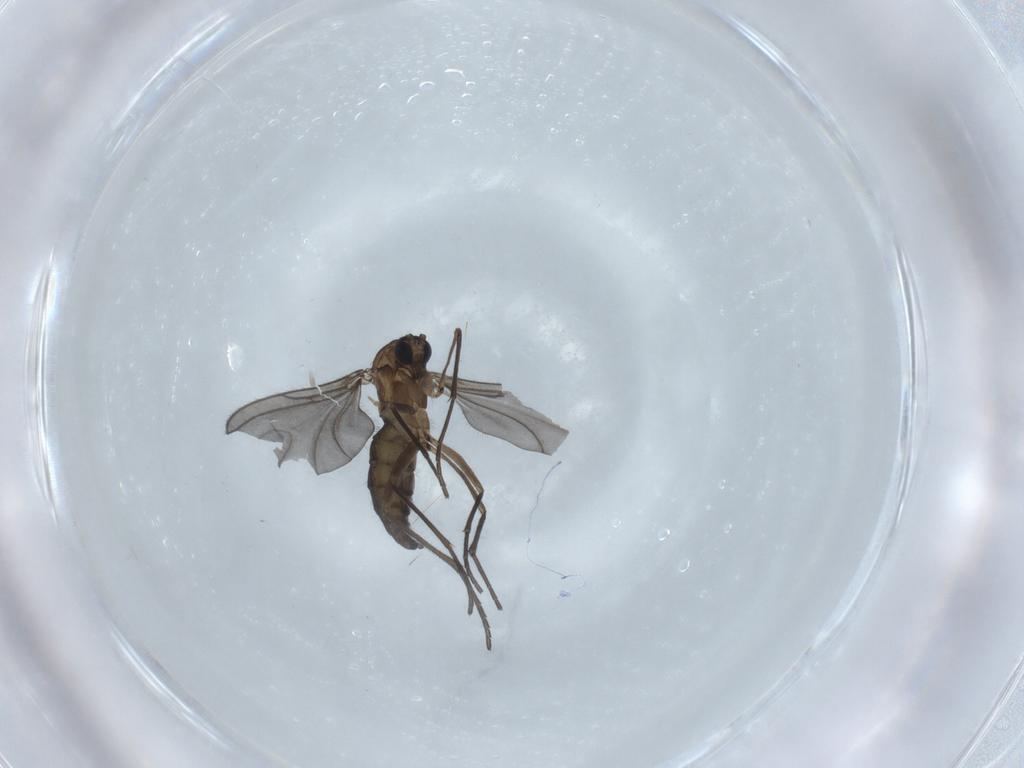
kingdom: Animalia
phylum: Arthropoda
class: Insecta
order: Diptera
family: Sciaridae
